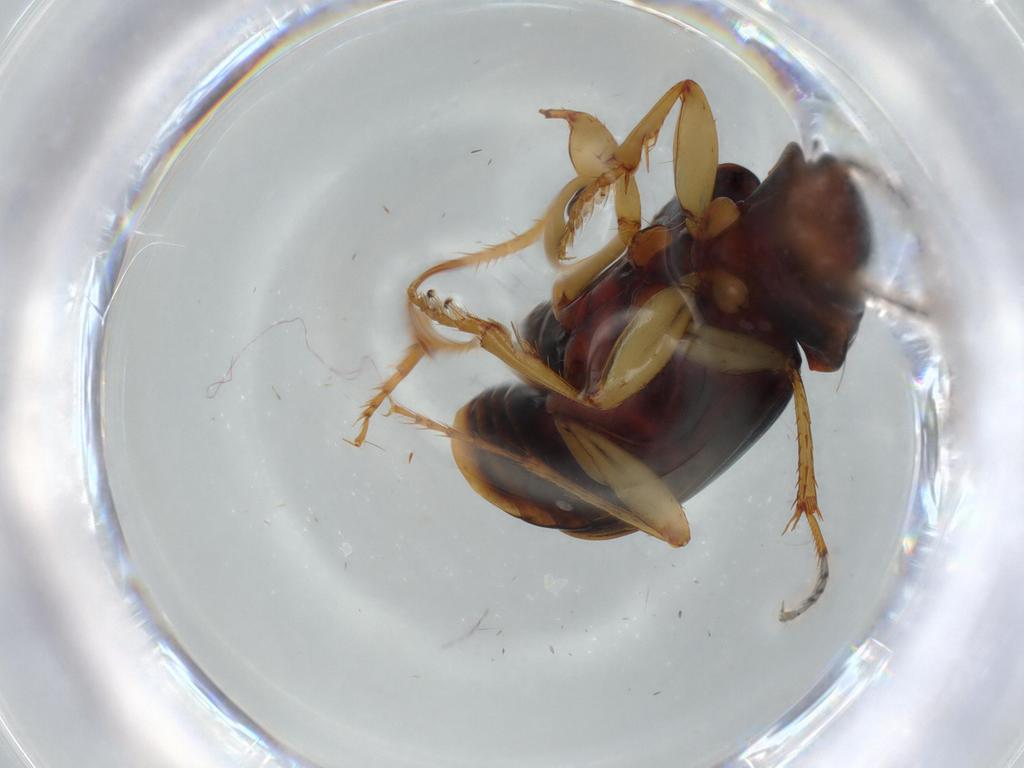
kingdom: Animalia
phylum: Arthropoda
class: Insecta
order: Coleoptera
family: Carabidae
